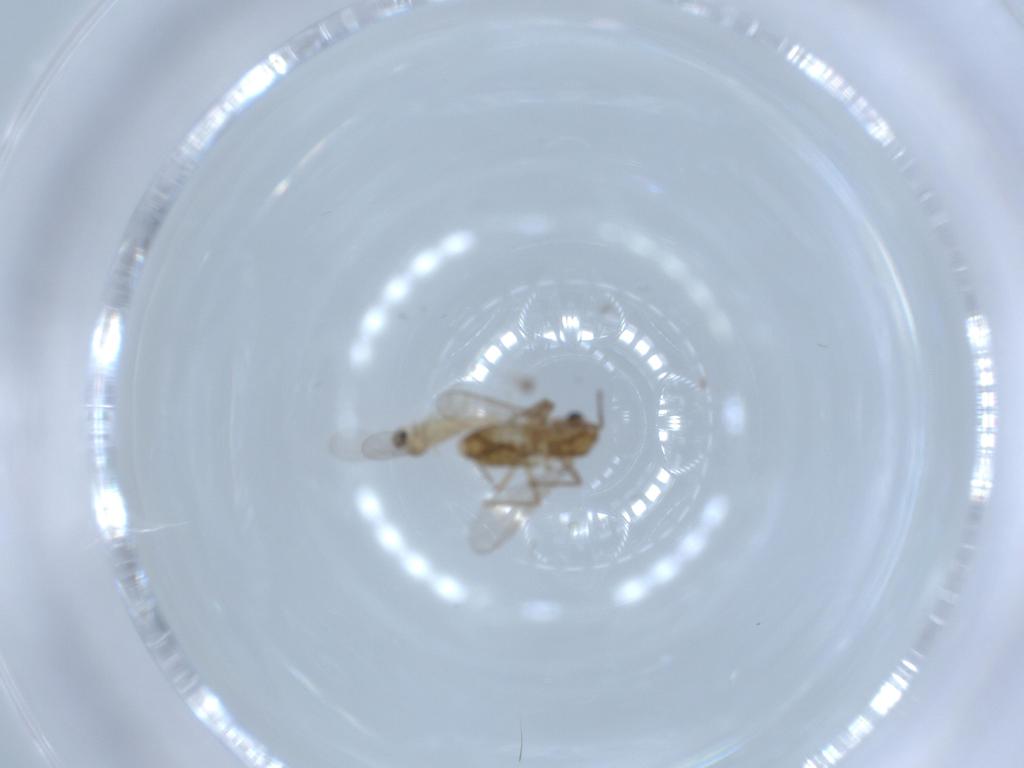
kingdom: Animalia
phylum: Arthropoda
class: Insecta
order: Diptera
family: Chironomidae
